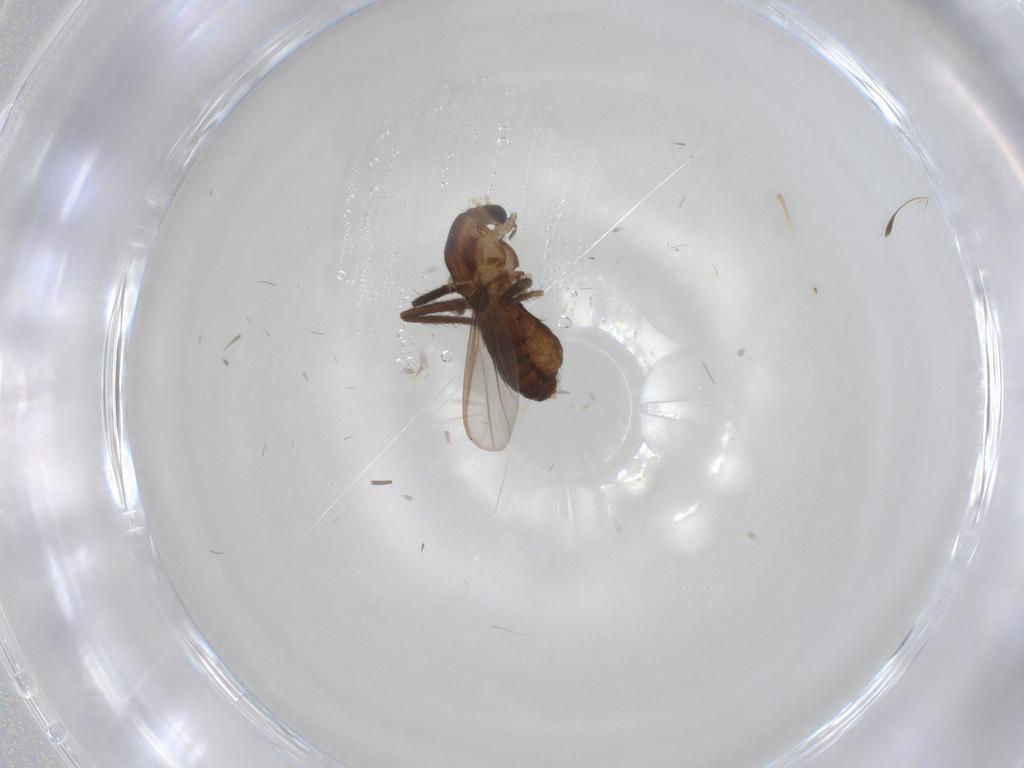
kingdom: Animalia
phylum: Arthropoda
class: Insecta
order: Diptera
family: Chironomidae
